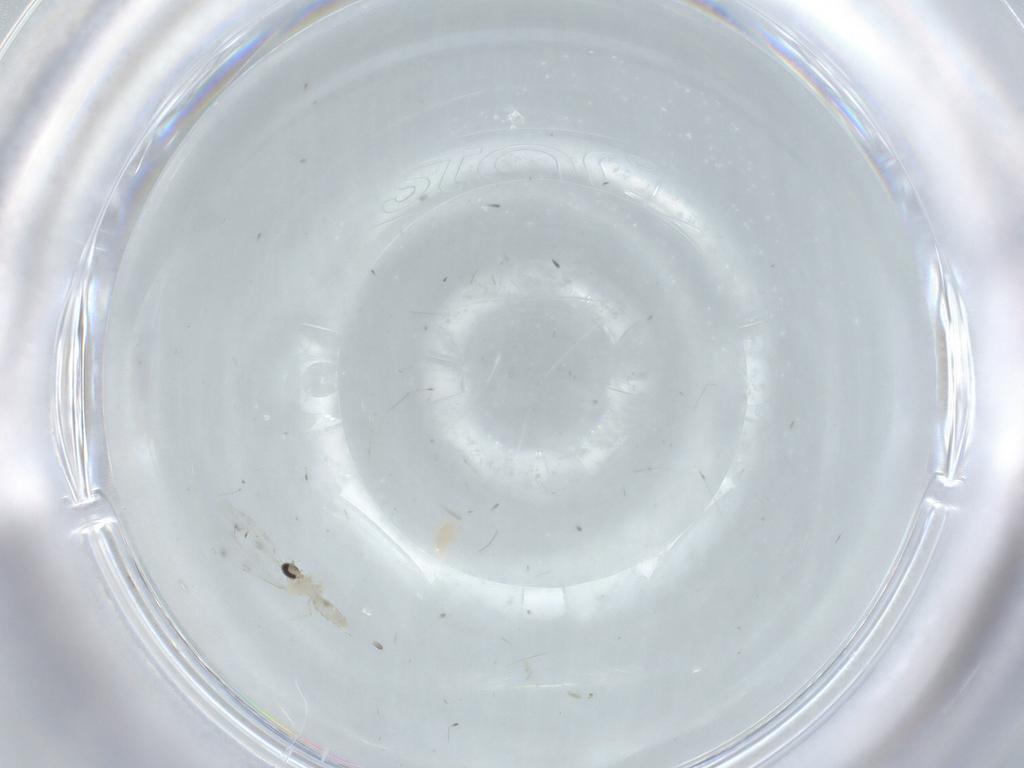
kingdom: Animalia
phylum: Arthropoda
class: Insecta
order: Diptera
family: Cecidomyiidae
